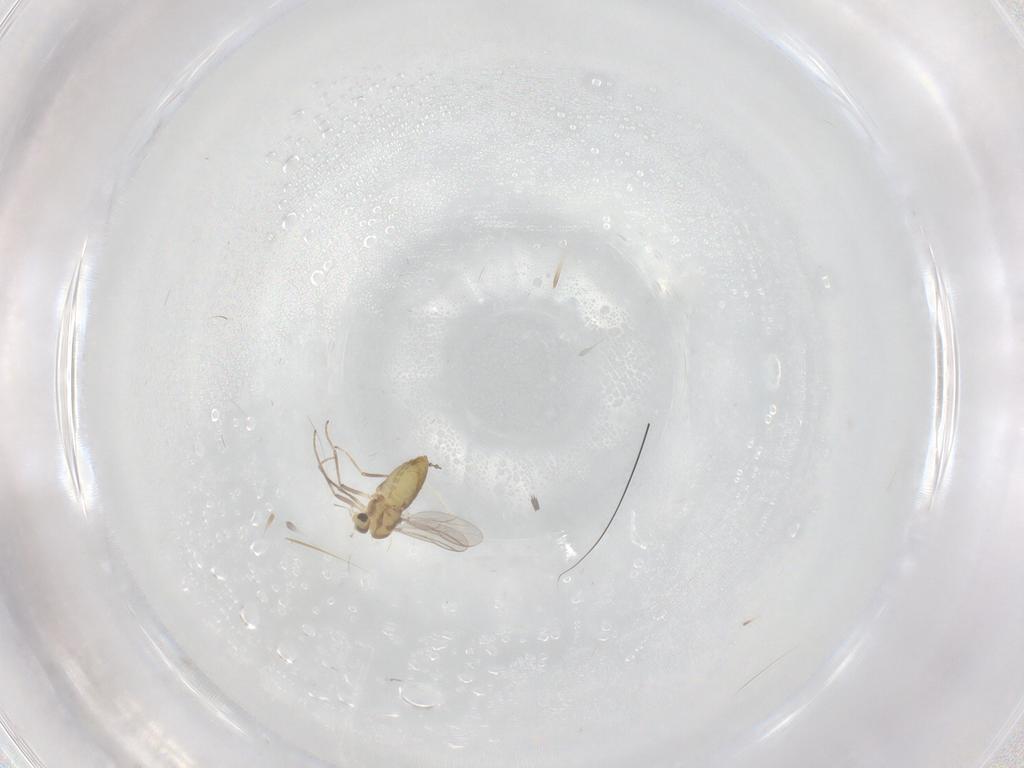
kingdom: Animalia
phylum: Arthropoda
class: Insecta
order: Diptera
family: Chironomidae
